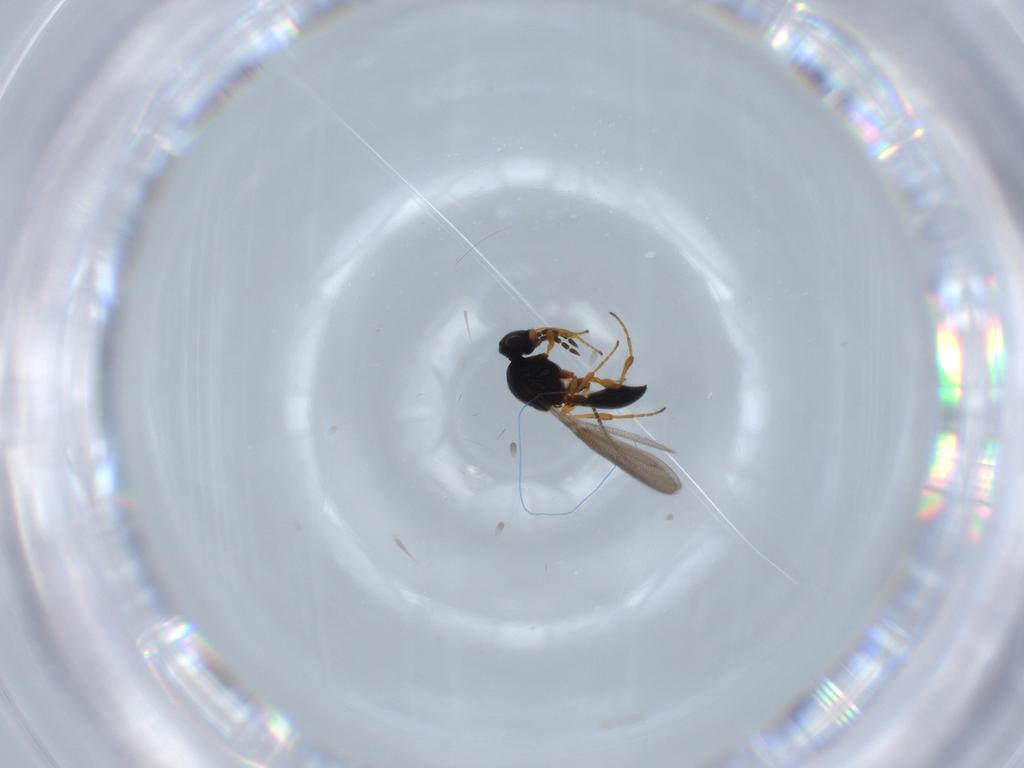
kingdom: Animalia
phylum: Arthropoda
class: Insecta
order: Hymenoptera
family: Platygastridae
